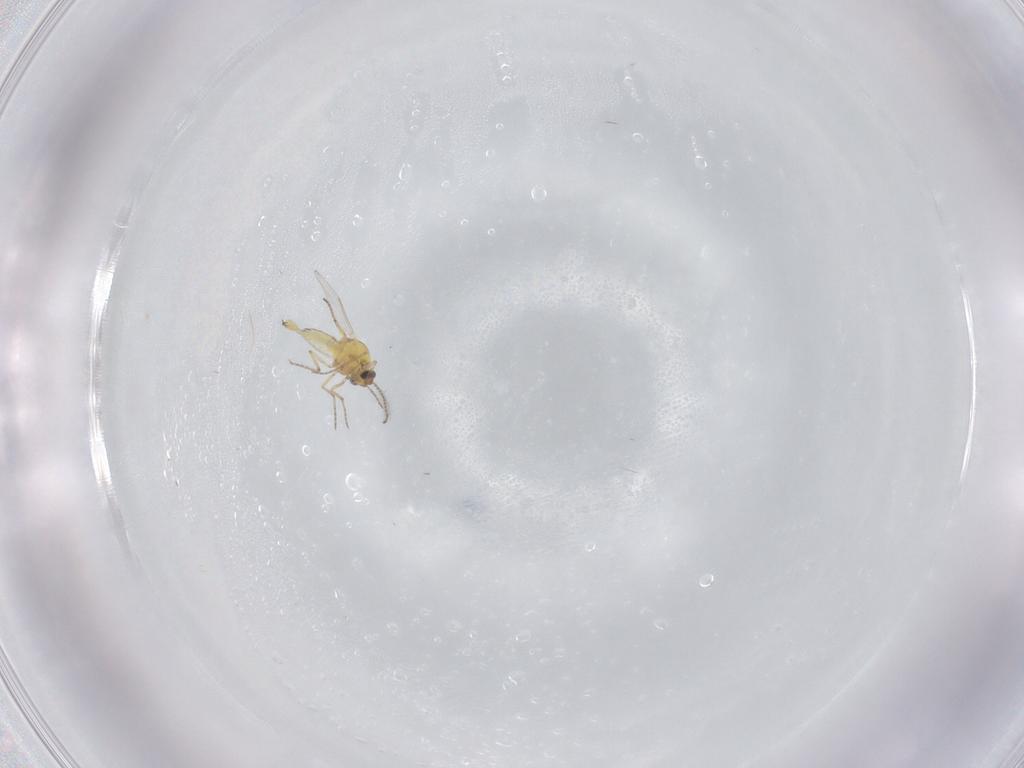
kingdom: Animalia
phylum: Arthropoda
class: Insecta
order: Diptera
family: Ceratopogonidae
